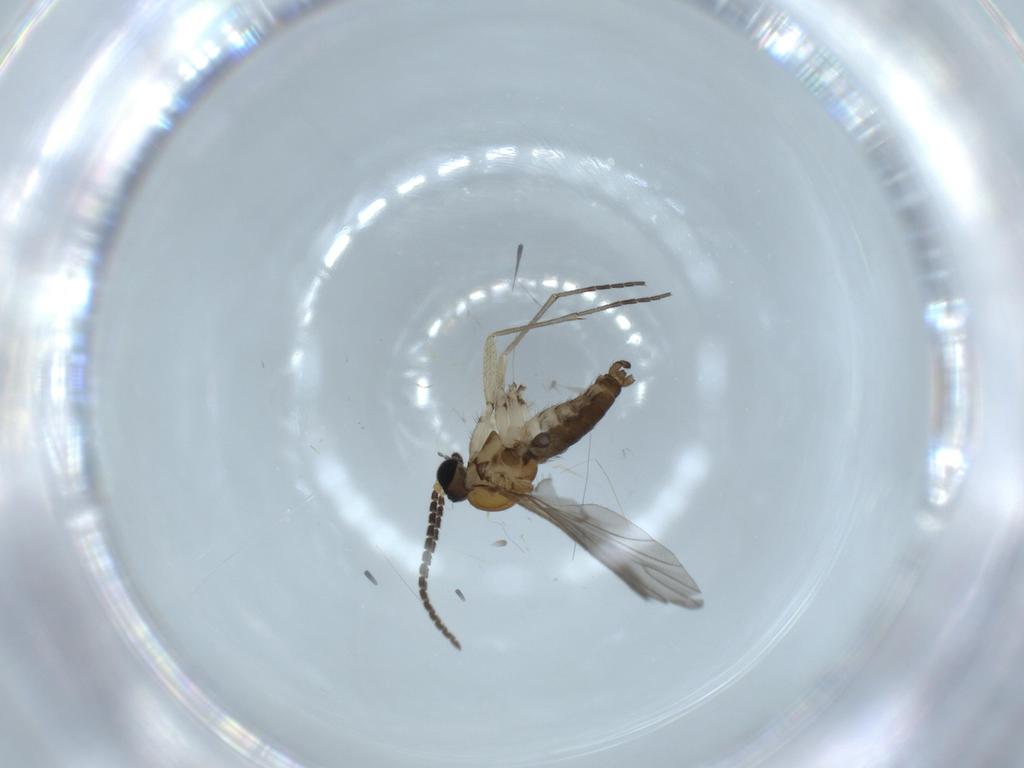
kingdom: Animalia
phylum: Arthropoda
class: Insecta
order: Diptera
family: Sciaridae
